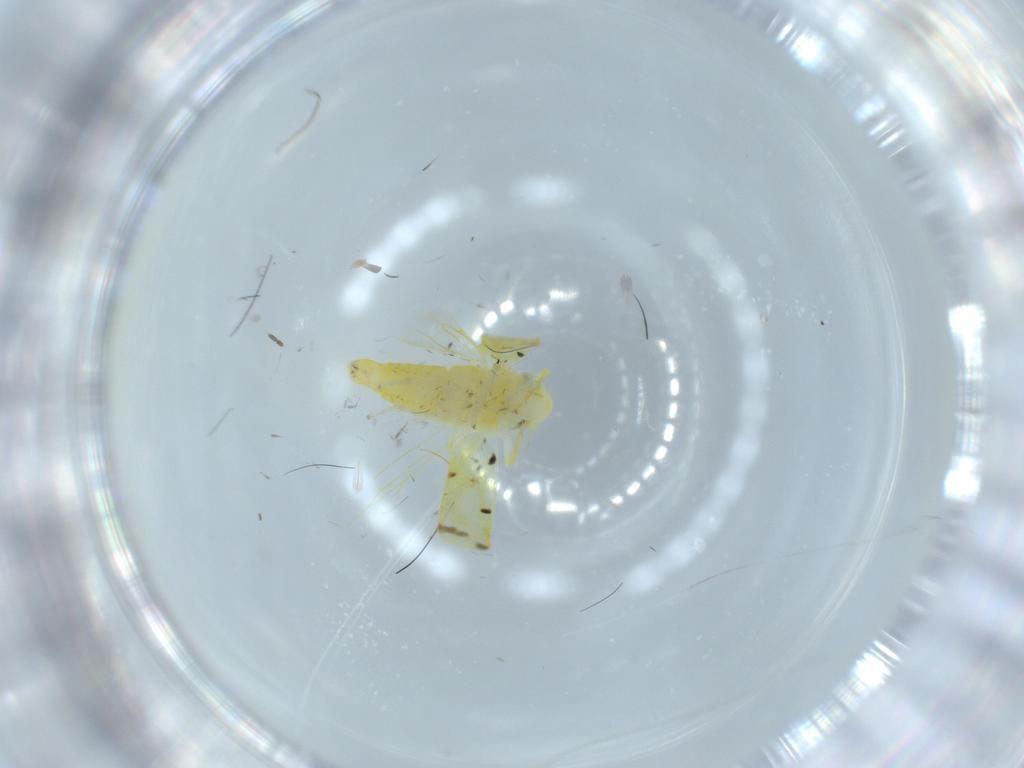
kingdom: Animalia
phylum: Arthropoda
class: Insecta
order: Hemiptera
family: Cicadellidae
